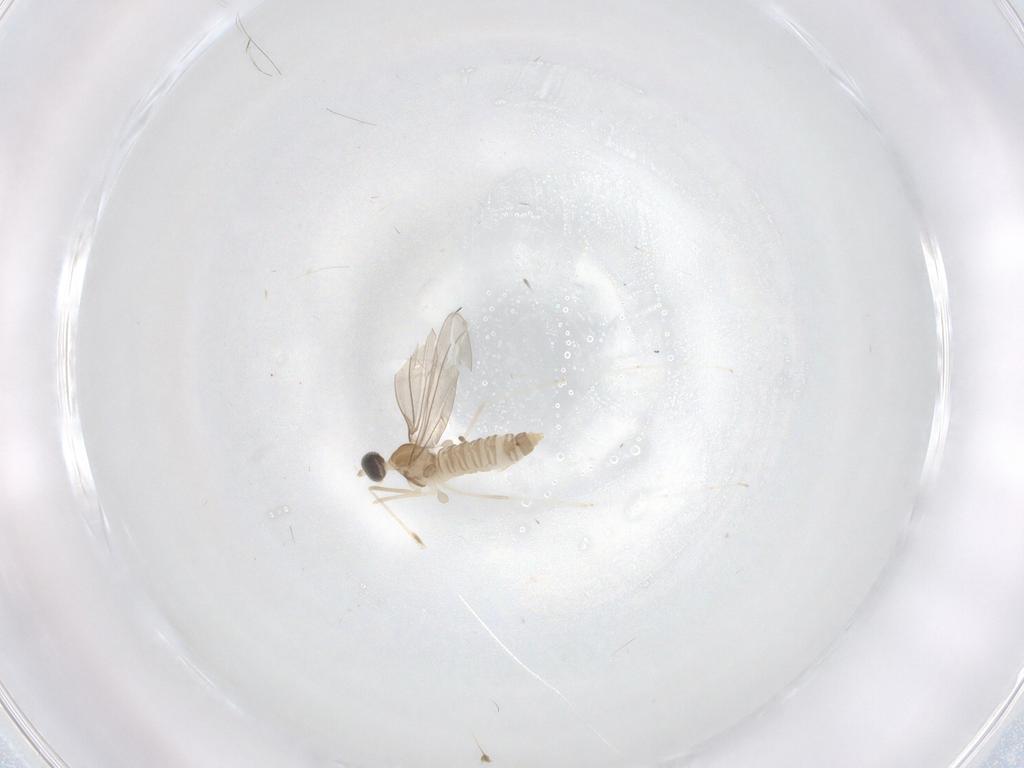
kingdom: Animalia
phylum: Arthropoda
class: Insecta
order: Diptera
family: Cecidomyiidae
